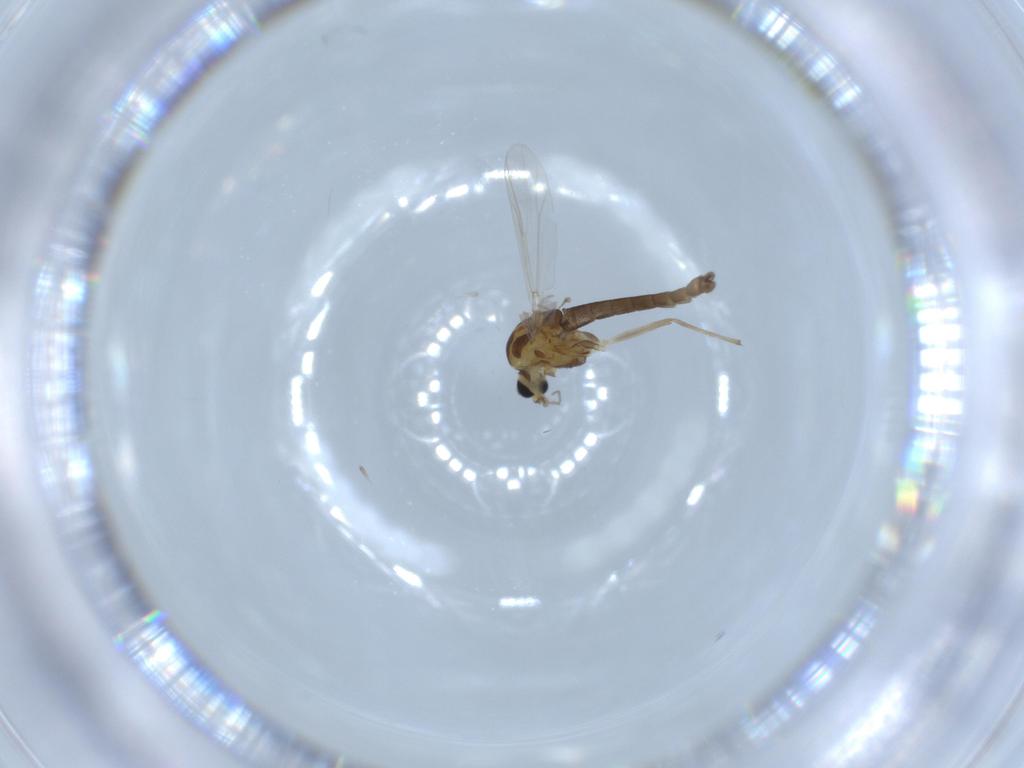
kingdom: Animalia
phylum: Arthropoda
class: Insecta
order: Diptera
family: Chironomidae
